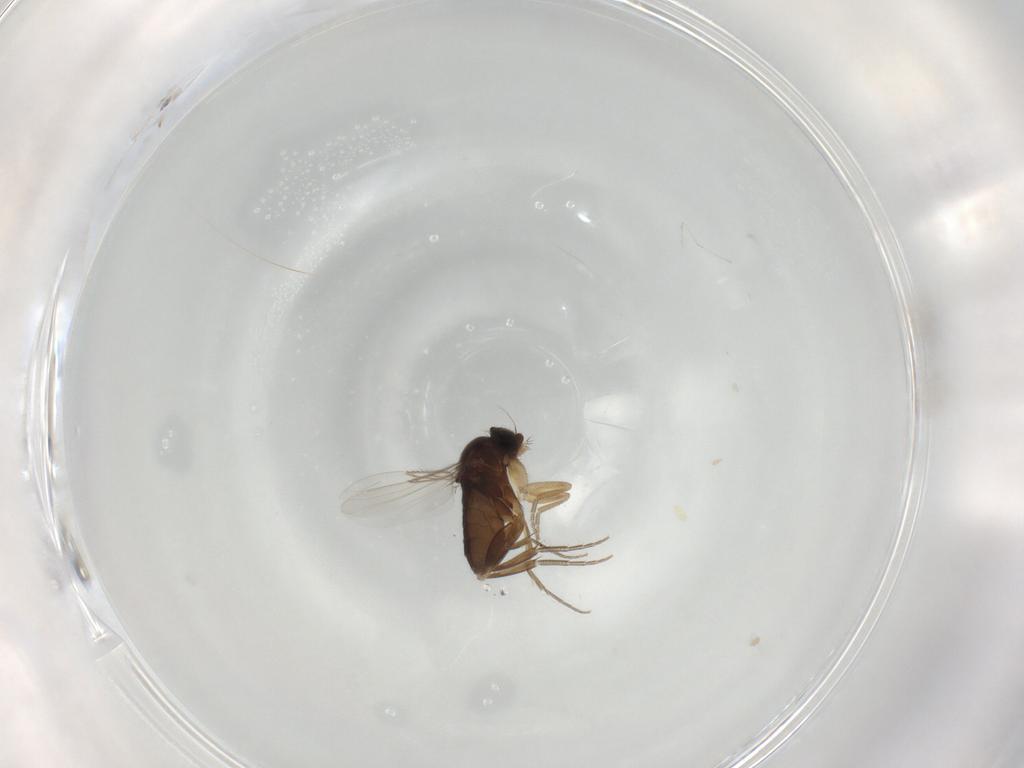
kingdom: Animalia
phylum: Arthropoda
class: Insecta
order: Diptera
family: Phoridae
